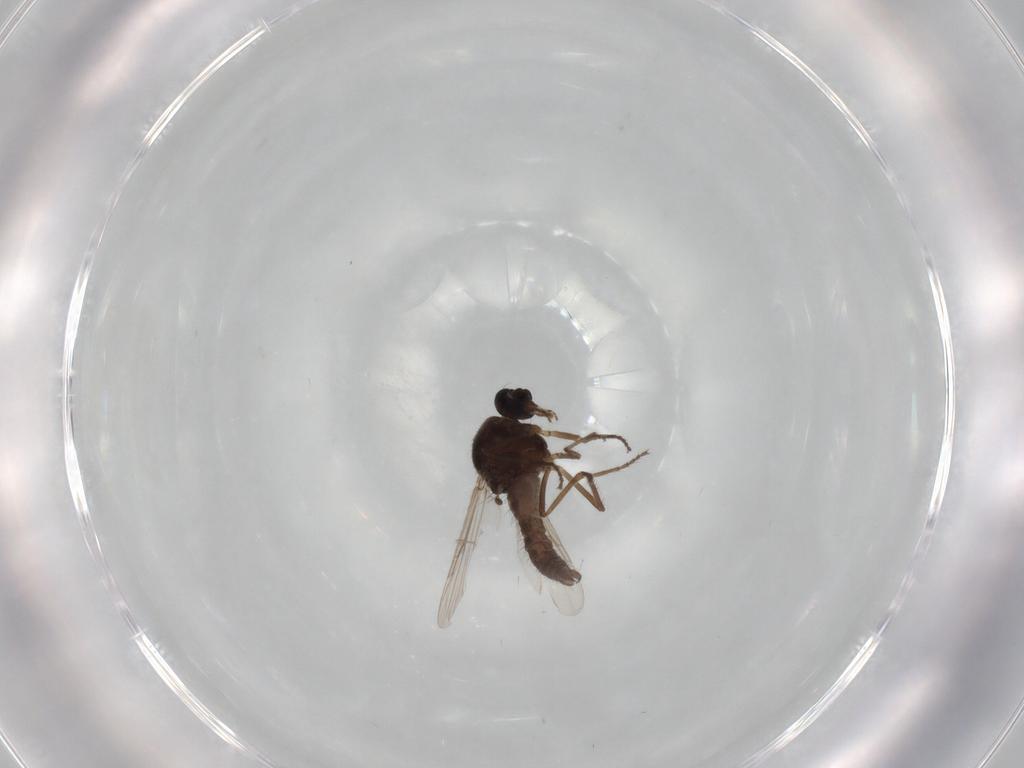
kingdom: Animalia
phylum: Arthropoda
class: Insecta
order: Diptera
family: Ceratopogonidae
